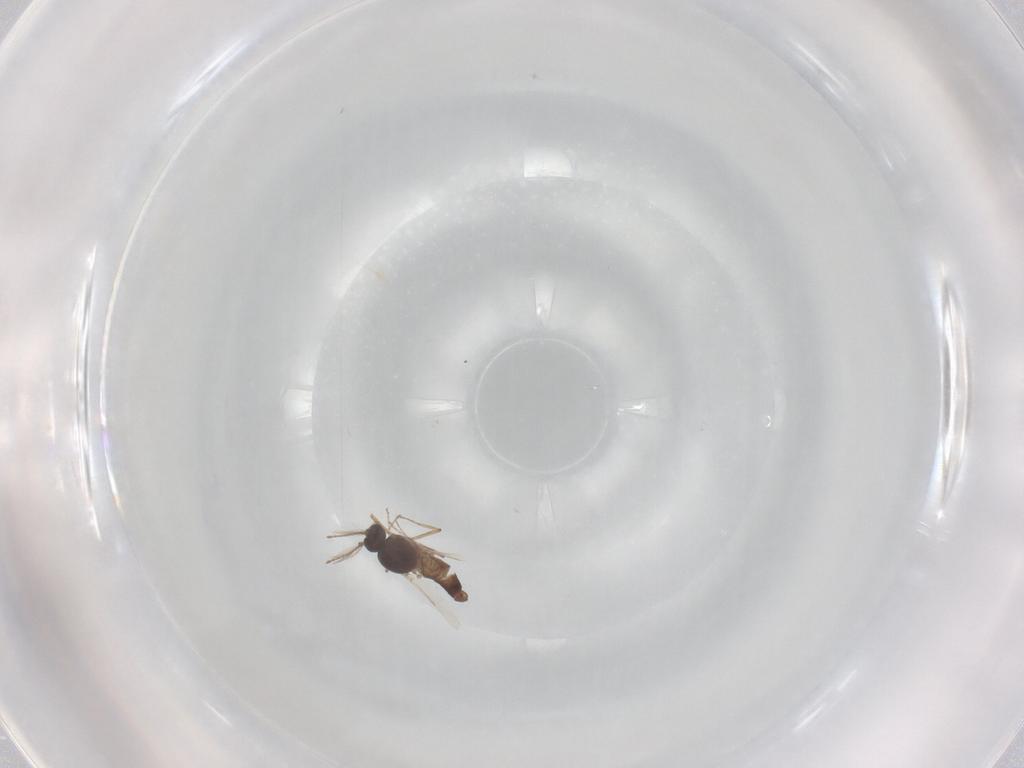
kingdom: Animalia
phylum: Arthropoda
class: Insecta
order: Diptera
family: Ceratopogonidae
